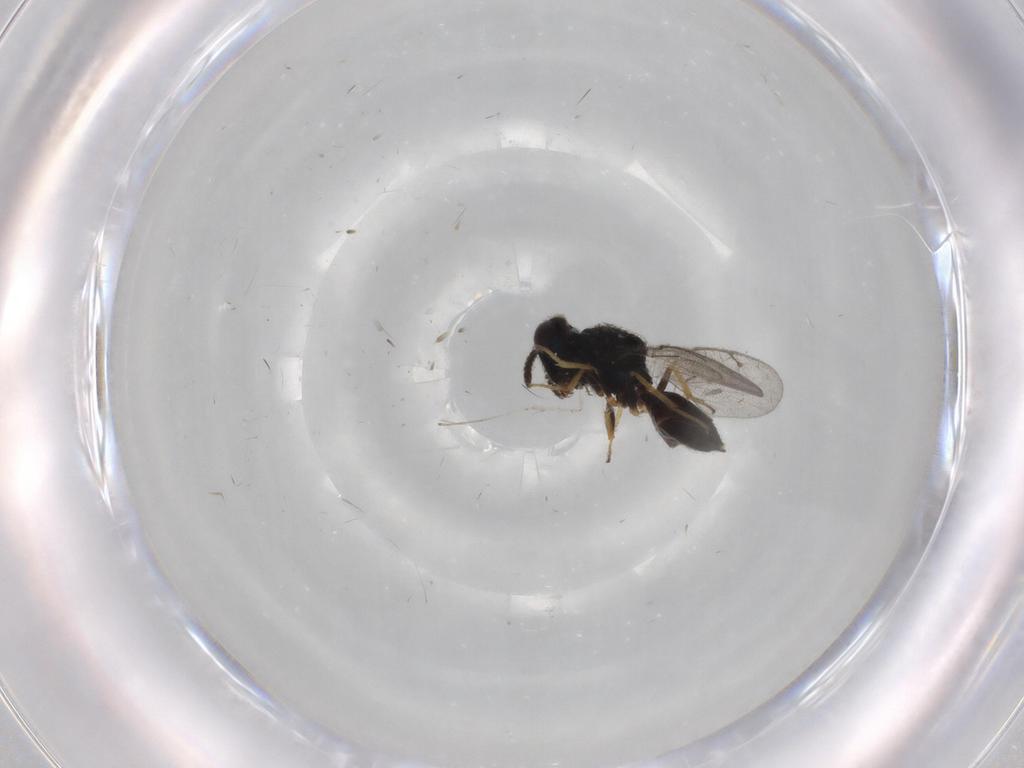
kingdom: Animalia
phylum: Arthropoda
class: Insecta
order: Hymenoptera
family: Pteromalidae
